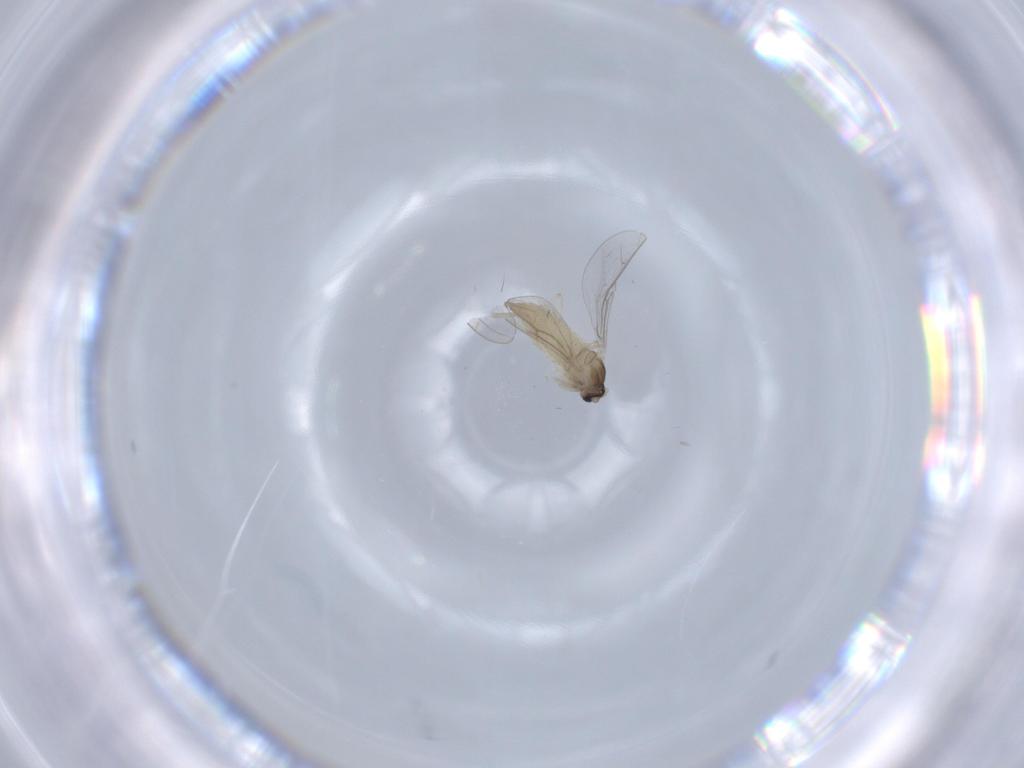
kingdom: Animalia
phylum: Arthropoda
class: Insecta
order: Diptera
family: Cecidomyiidae
